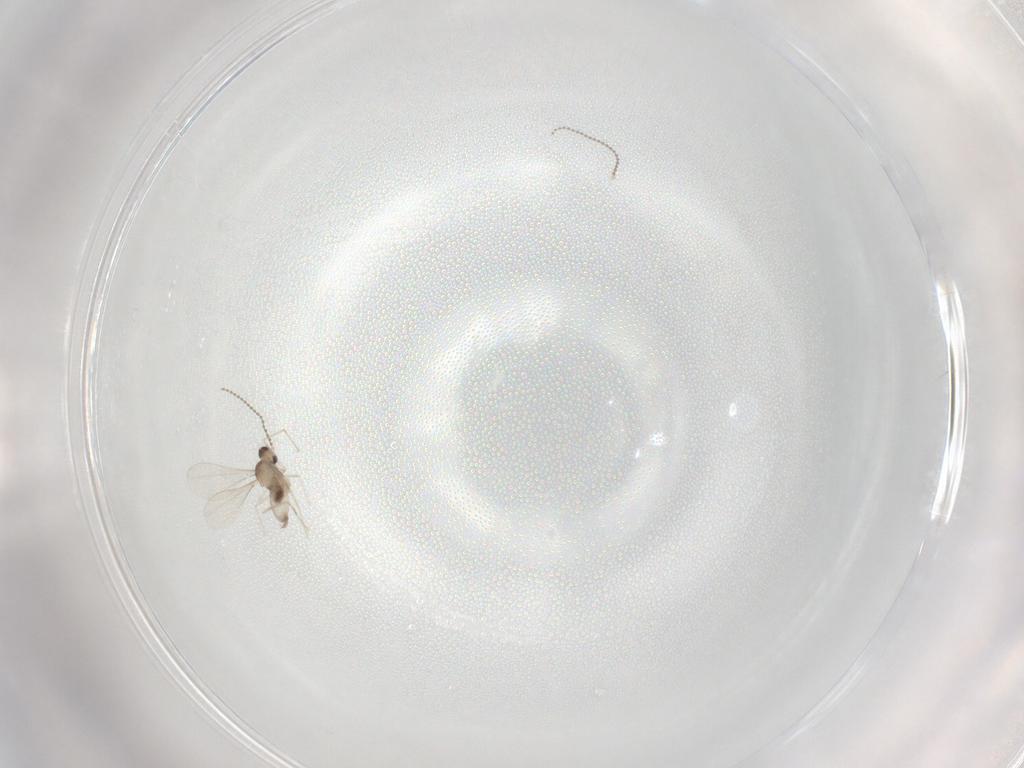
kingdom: Animalia
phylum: Arthropoda
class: Insecta
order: Diptera
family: Cecidomyiidae
